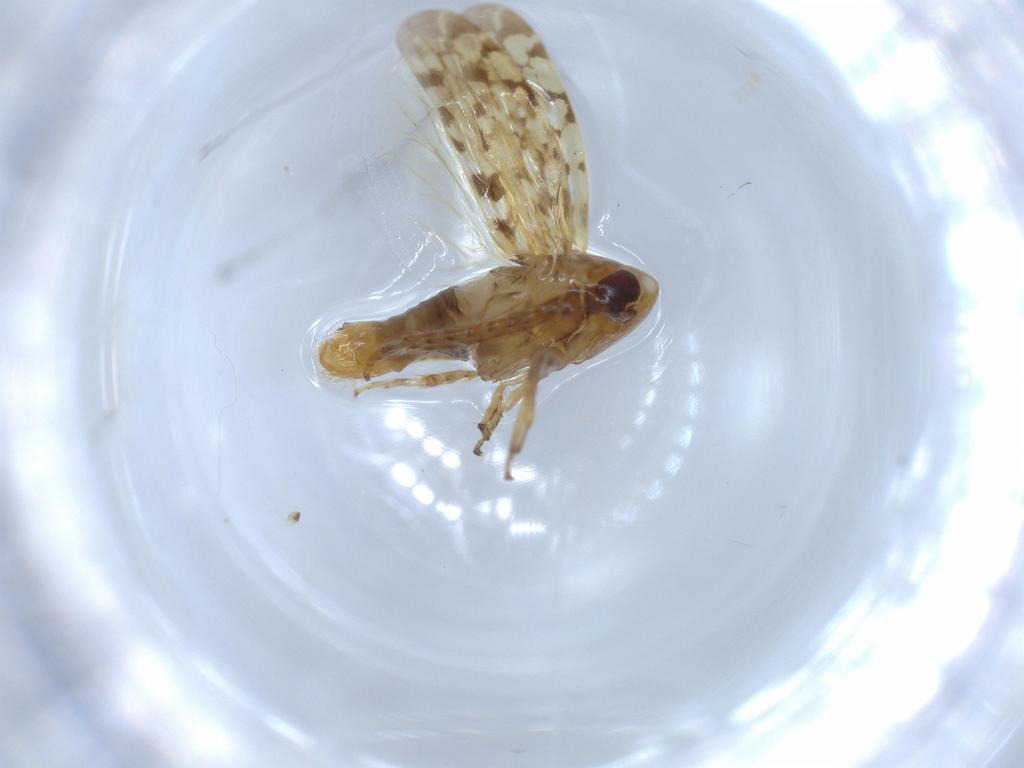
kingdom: Animalia
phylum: Arthropoda
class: Insecta
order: Hemiptera
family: Cicadellidae
